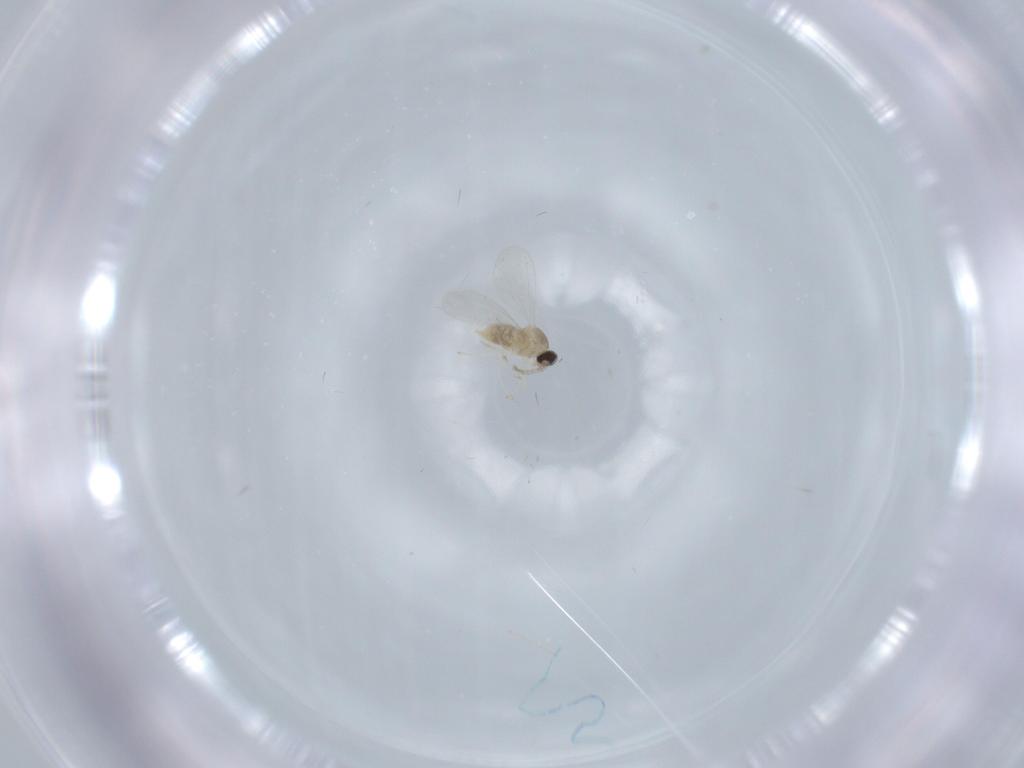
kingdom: Animalia
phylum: Arthropoda
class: Insecta
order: Diptera
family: Cecidomyiidae
